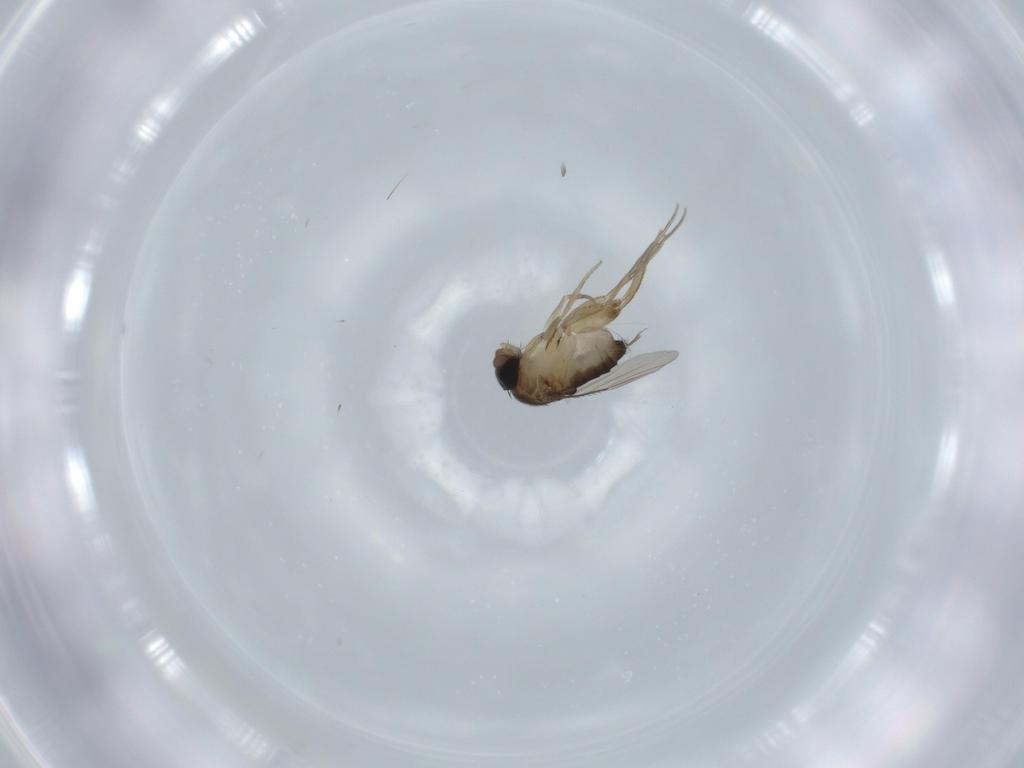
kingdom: Animalia
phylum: Arthropoda
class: Insecta
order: Diptera
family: Phoridae
